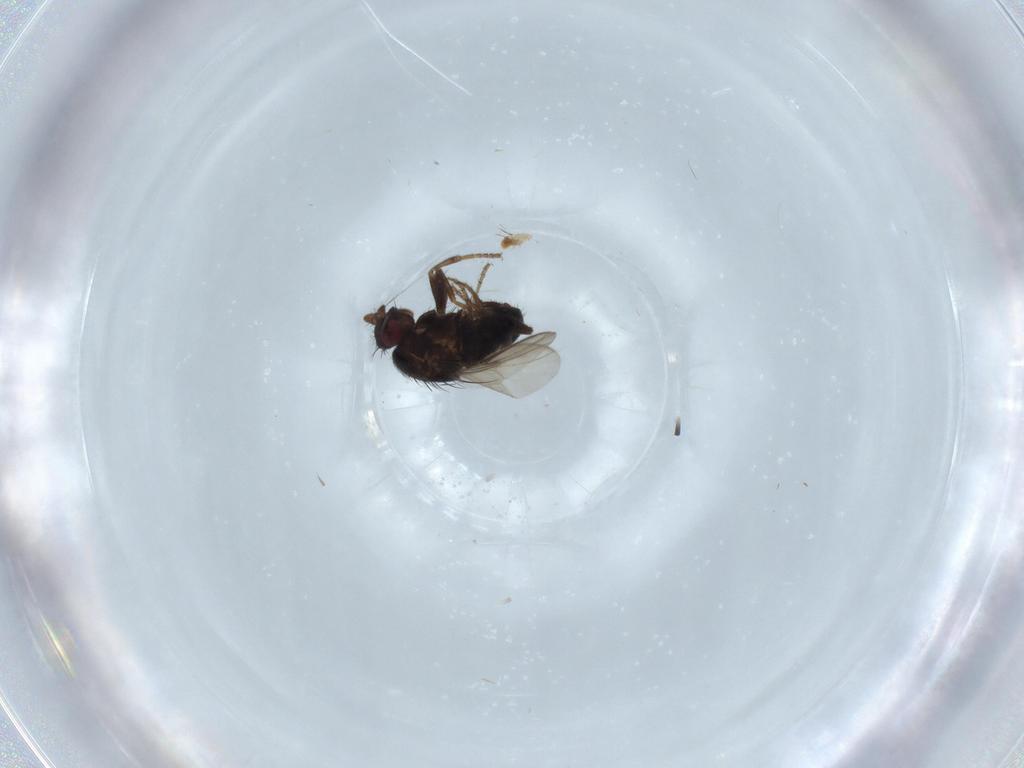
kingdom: Animalia
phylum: Arthropoda
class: Insecta
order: Diptera
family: Sphaeroceridae
